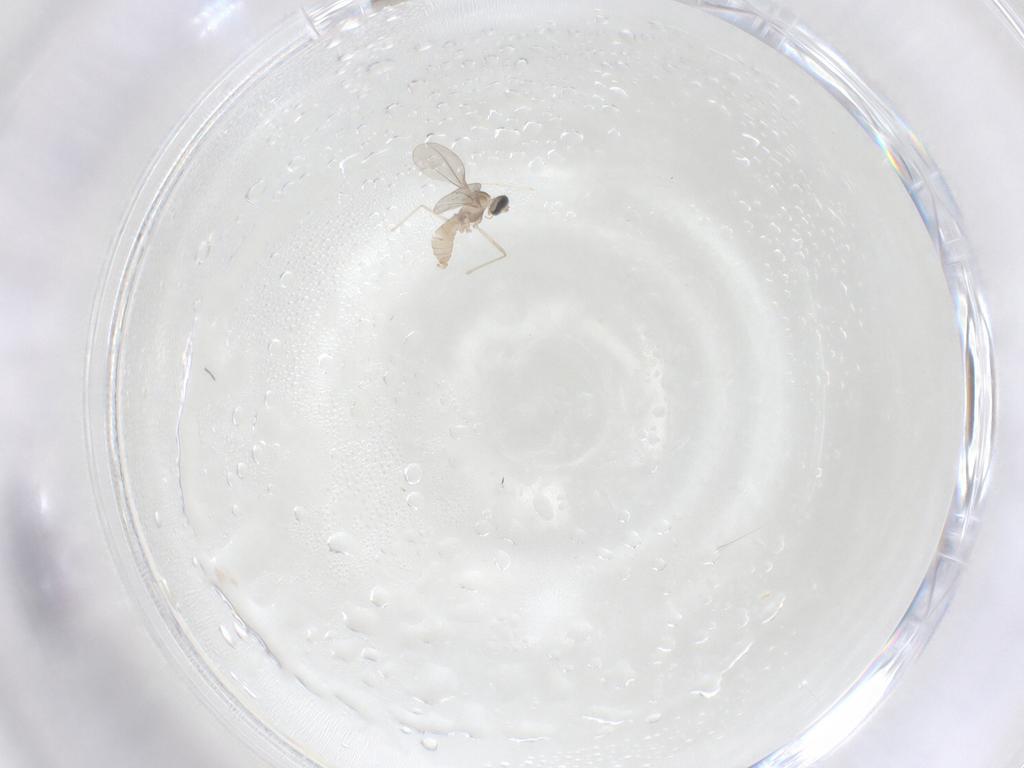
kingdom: Animalia
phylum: Arthropoda
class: Insecta
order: Diptera
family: Cecidomyiidae
